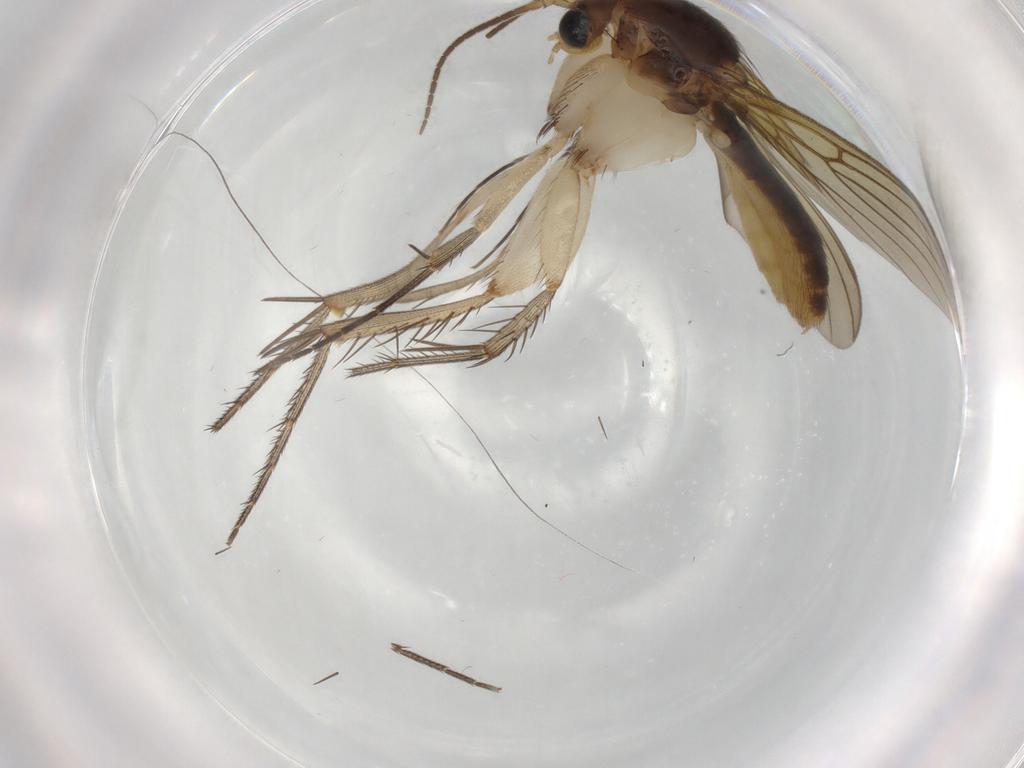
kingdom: Animalia
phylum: Arthropoda
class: Insecta
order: Diptera
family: Mycetophilidae
